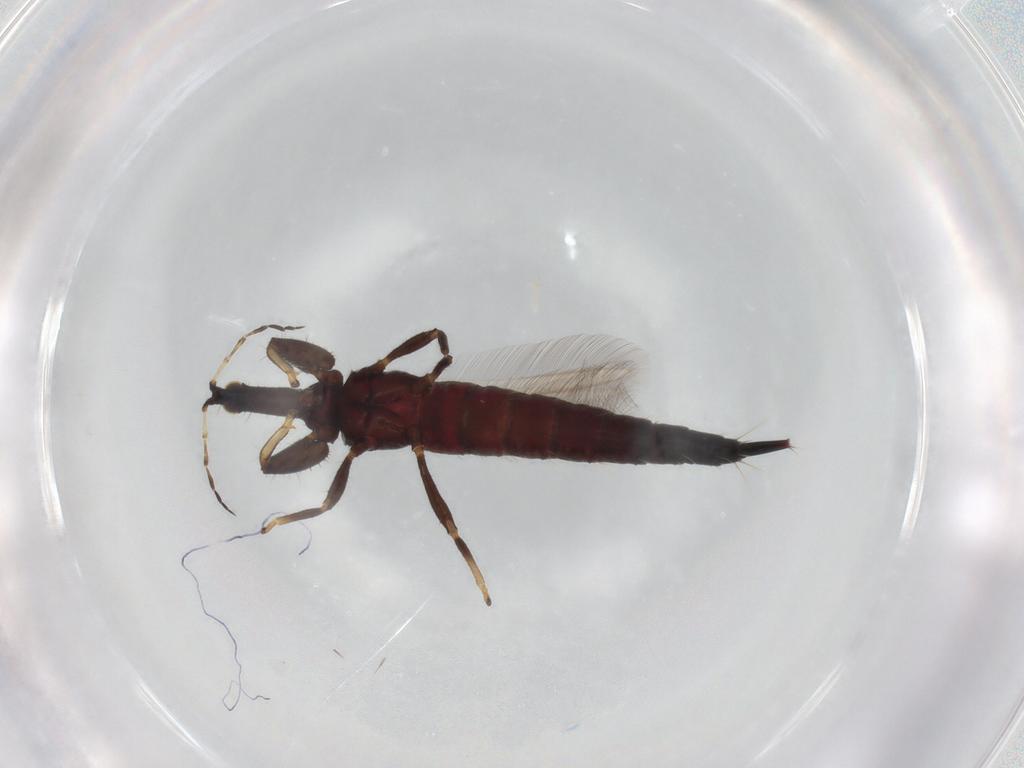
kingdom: Animalia
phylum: Arthropoda
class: Insecta
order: Thysanoptera
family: Phlaeothripidae
